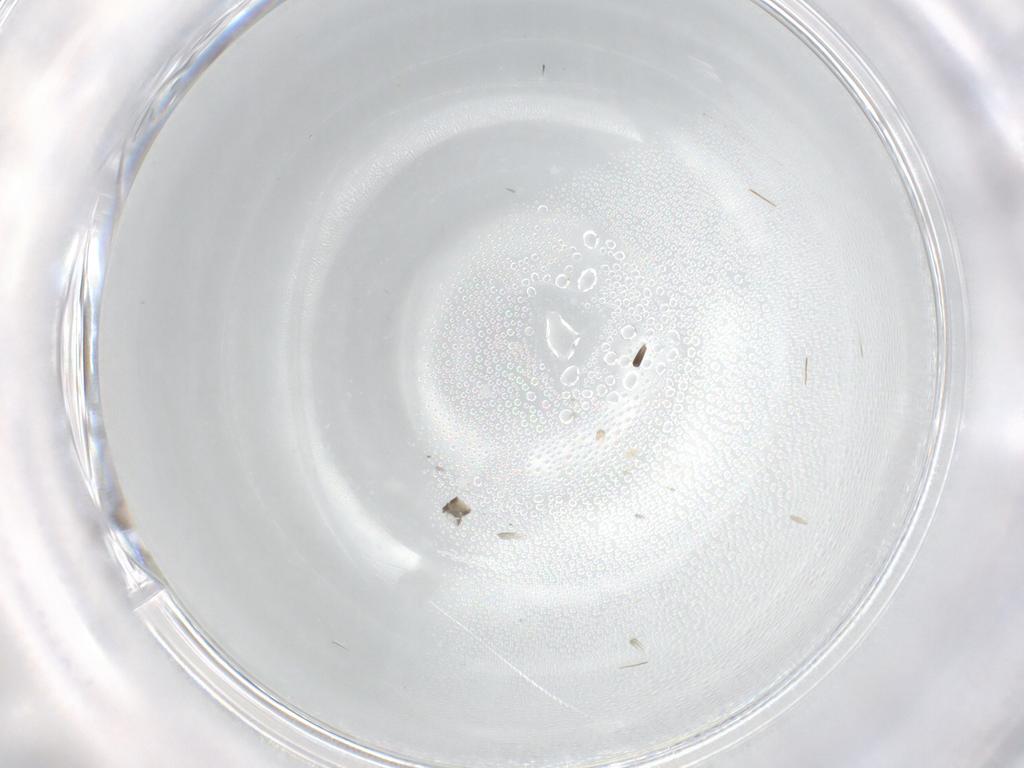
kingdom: Animalia
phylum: Arthropoda
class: Insecta
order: Diptera
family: Chironomidae
